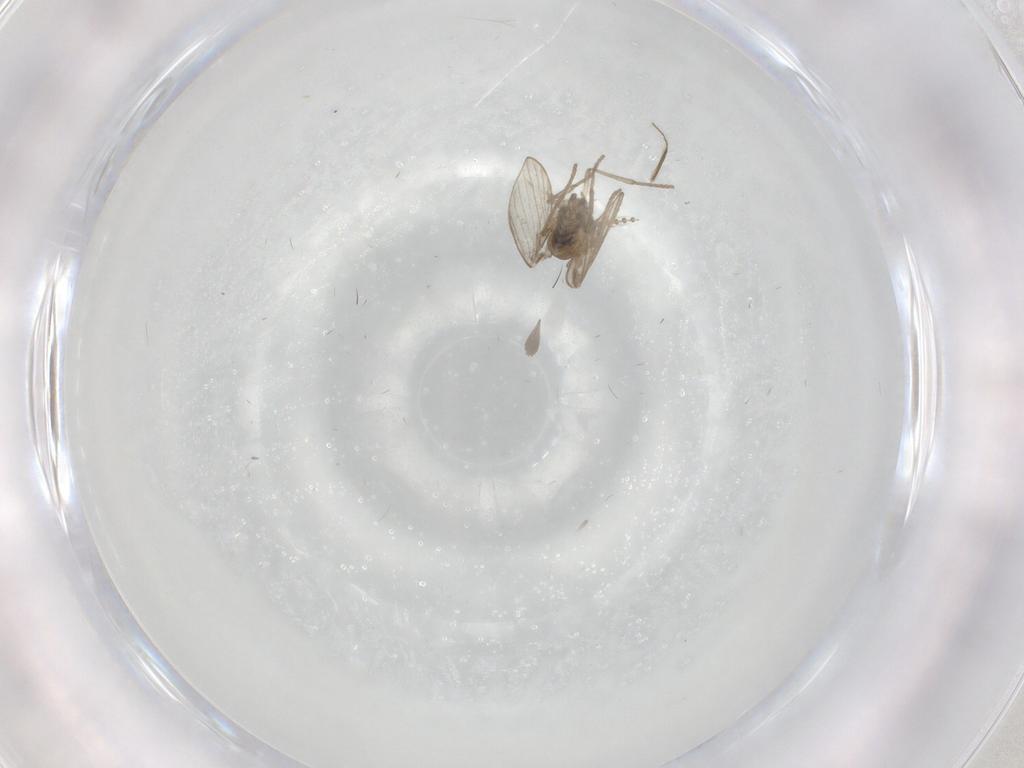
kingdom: Animalia
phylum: Arthropoda
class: Insecta
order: Diptera
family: Psychodidae
